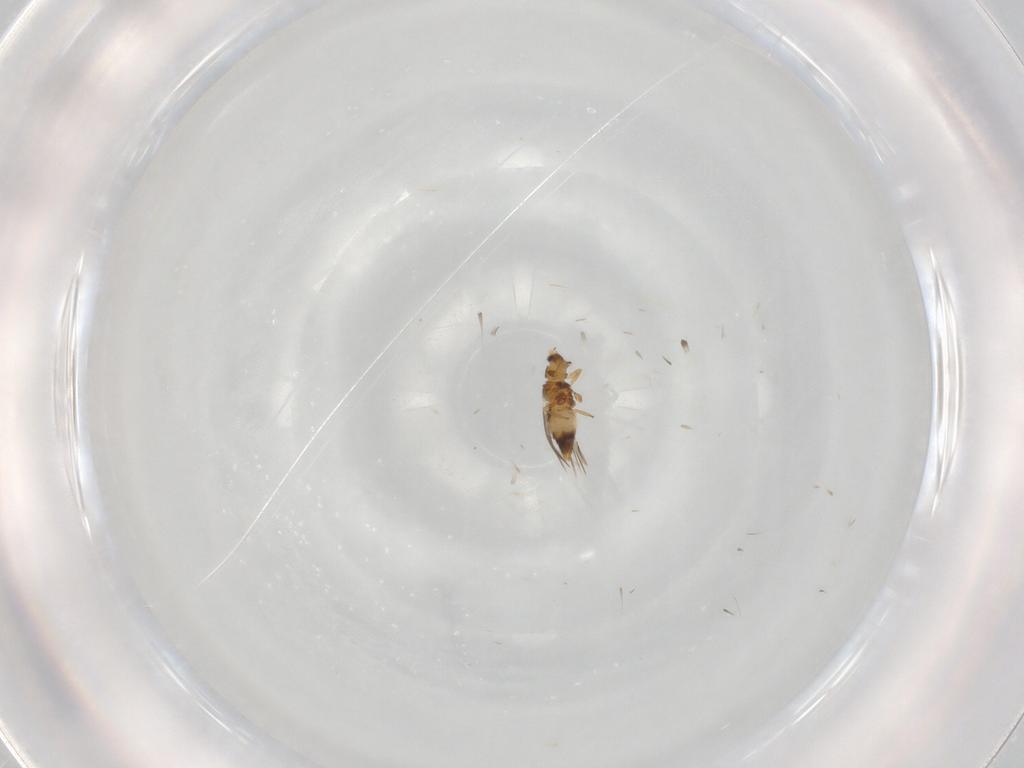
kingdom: Animalia
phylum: Arthropoda
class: Insecta
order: Thysanoptera
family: Thripidae
